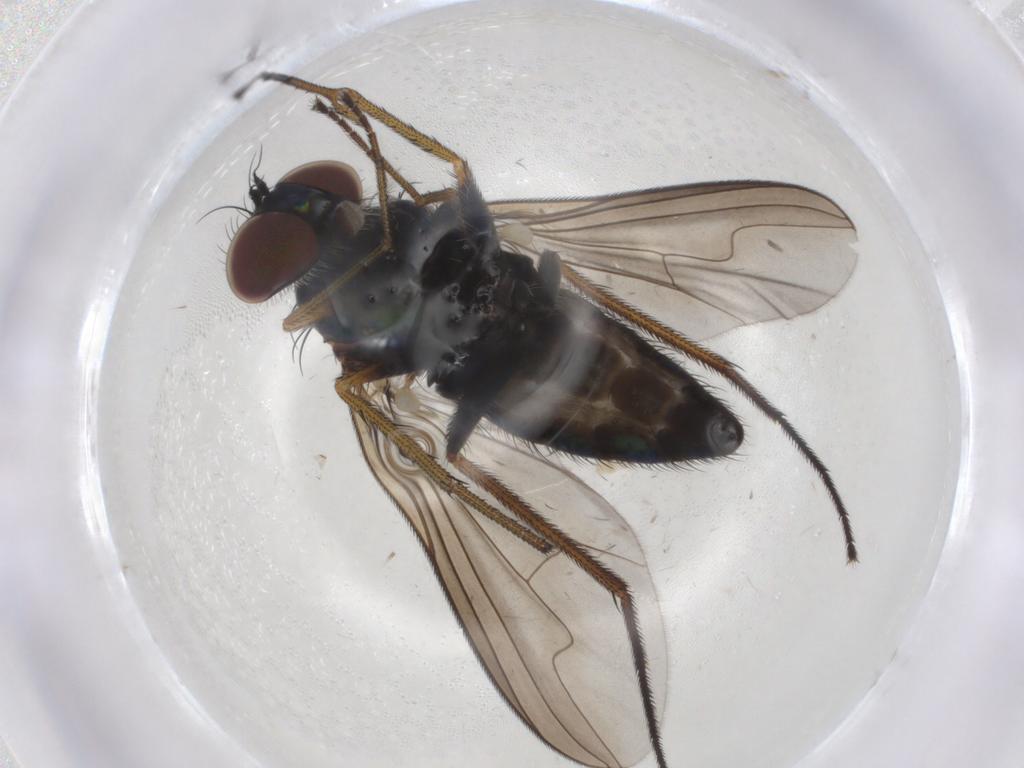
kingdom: Animalia
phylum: Arthropoda
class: Insecta
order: Diptera
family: Dolichopodidae
